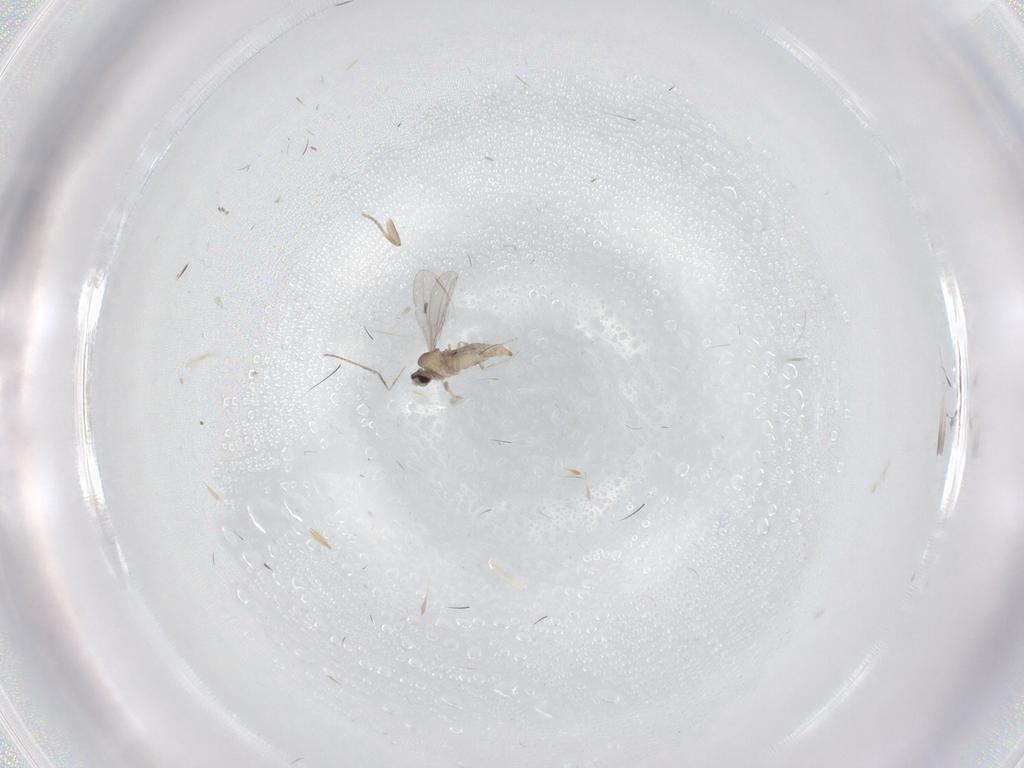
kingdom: Animalia
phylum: Arthropoda
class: Insecta
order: Diptera
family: Cecidomyiidae
